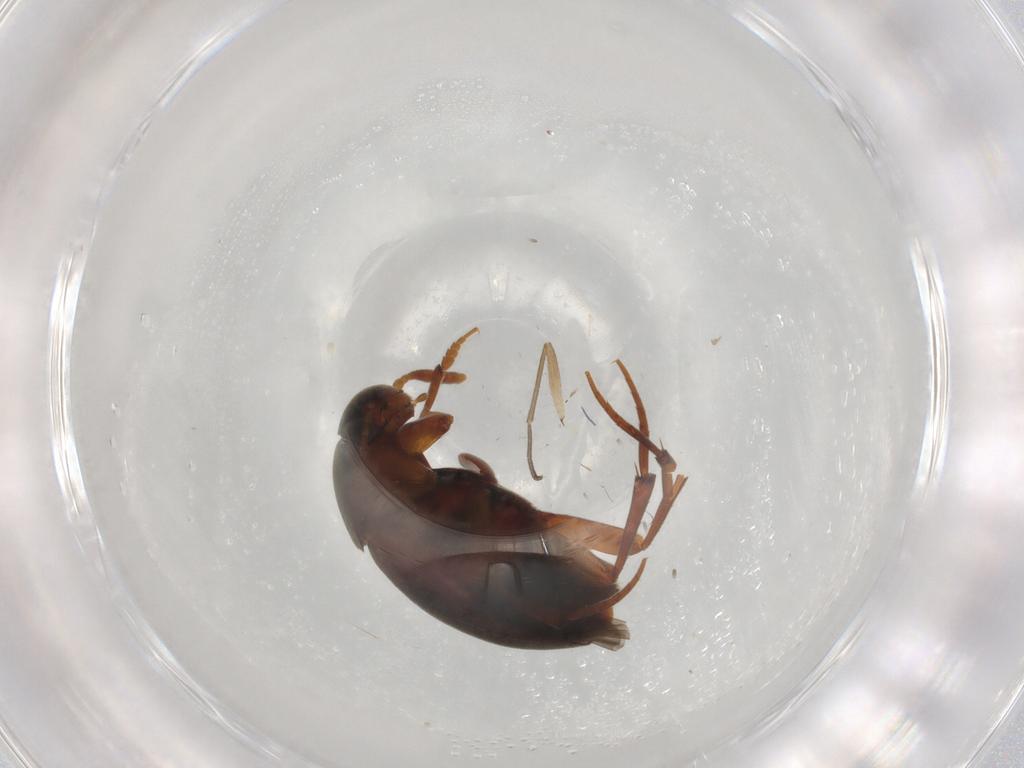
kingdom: Animalia
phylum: Arthropoda
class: Insecta
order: Coleoptera
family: Leiodidae
